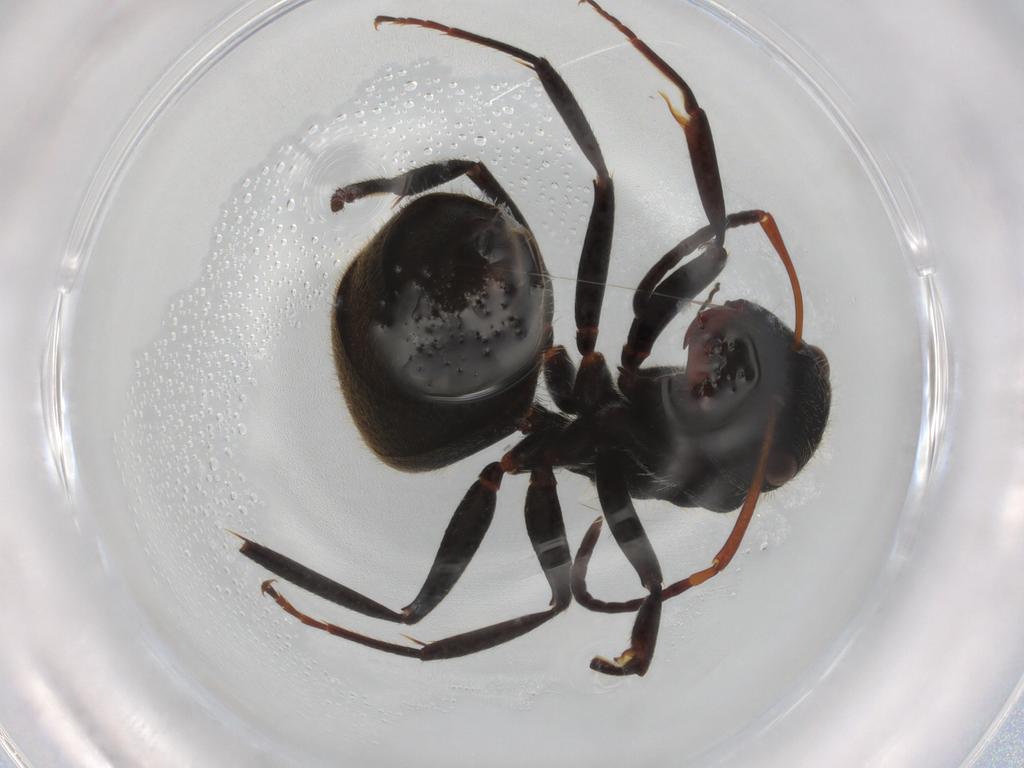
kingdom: Animalia
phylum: Arthropoda
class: Insecta
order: Hymenoptera
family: Formicidae
